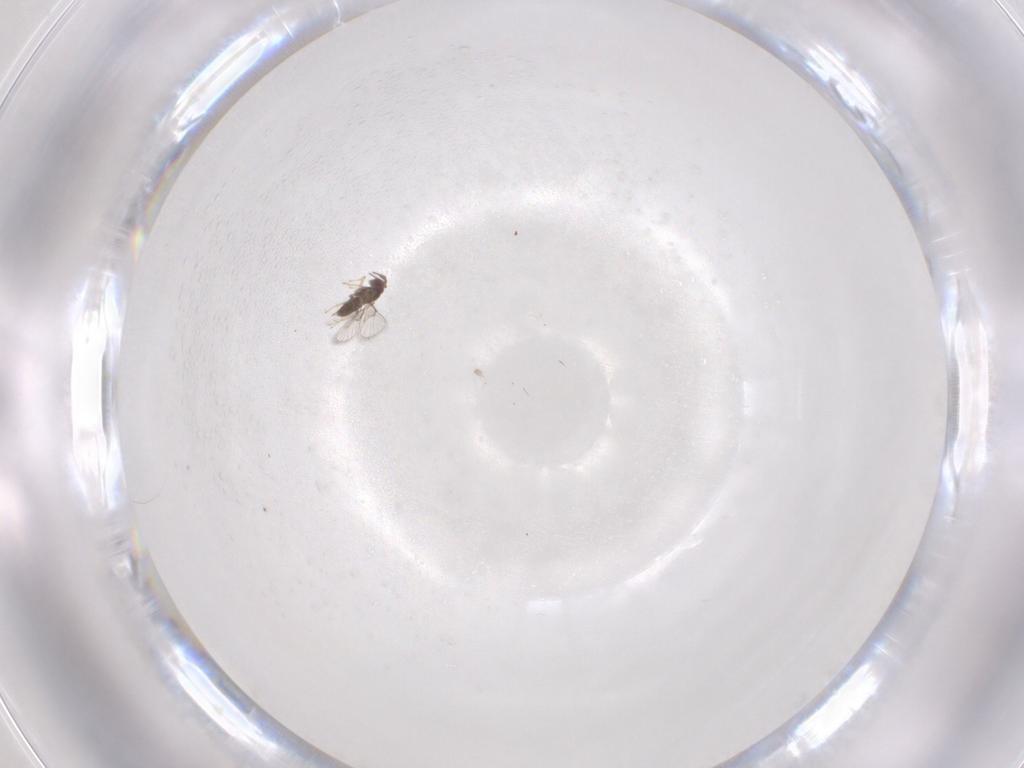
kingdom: Animalia
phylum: Arthropoda
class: Insecta
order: Hymenoptera
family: Trichogrammatidae
